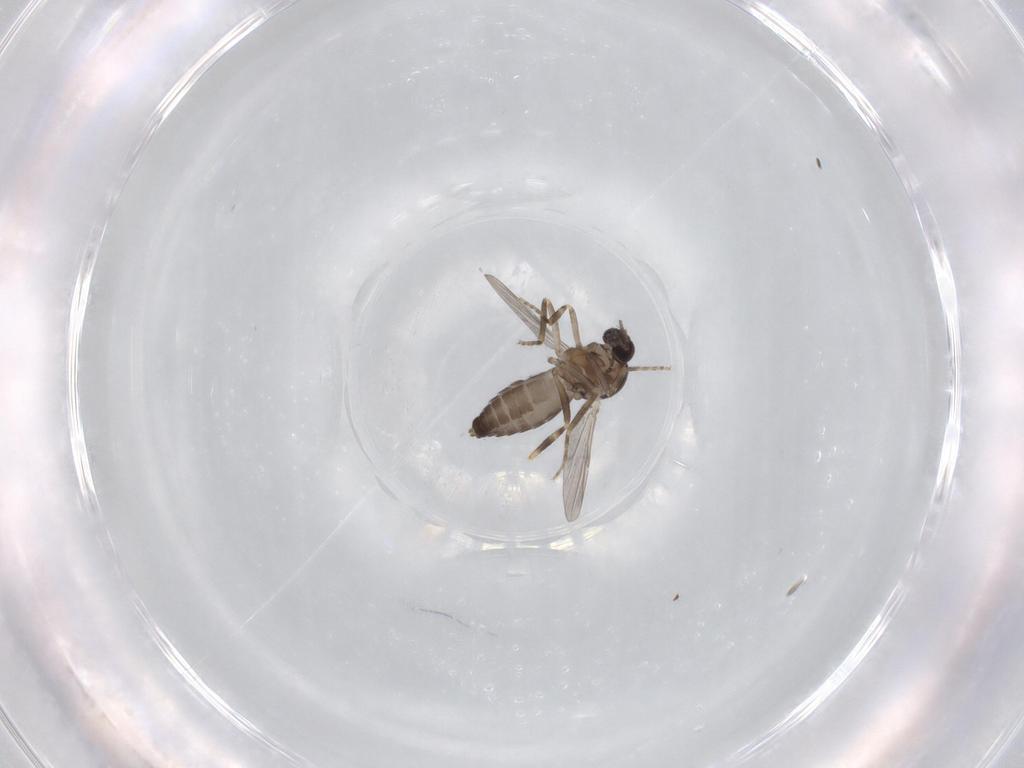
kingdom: Animalia
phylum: Arthropoda
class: Insecta
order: Diptera
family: Ceratopogonidae
